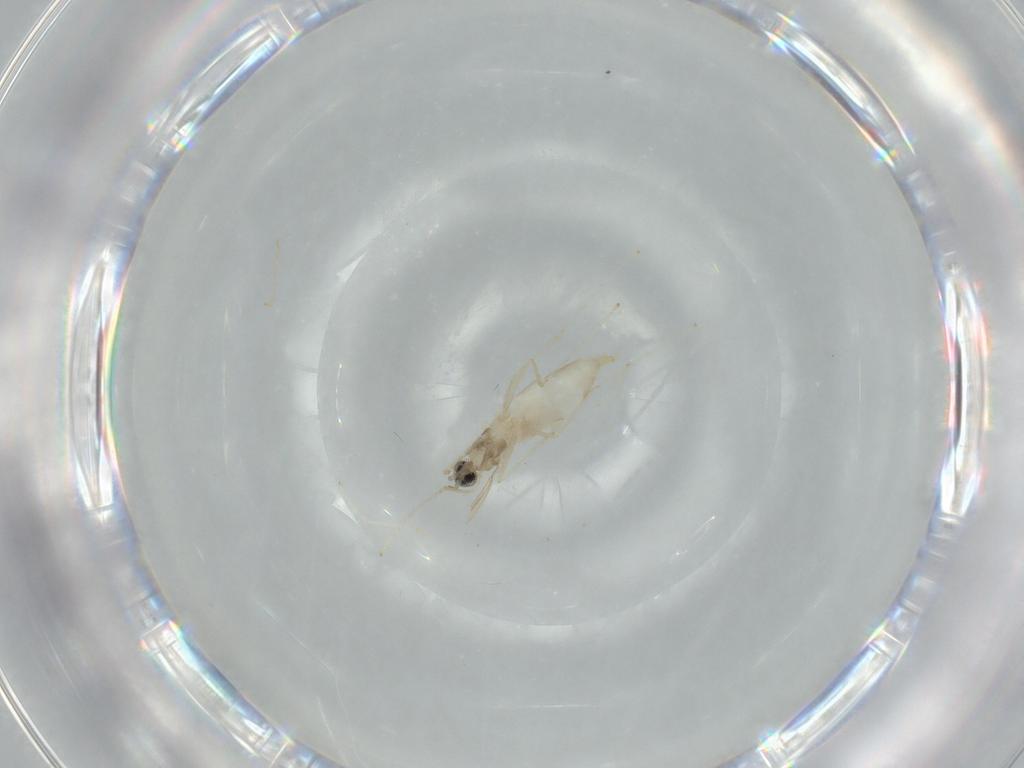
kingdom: Animalia
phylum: Arthropoda
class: Insecta
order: Diptera
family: Cecidomyiidae
